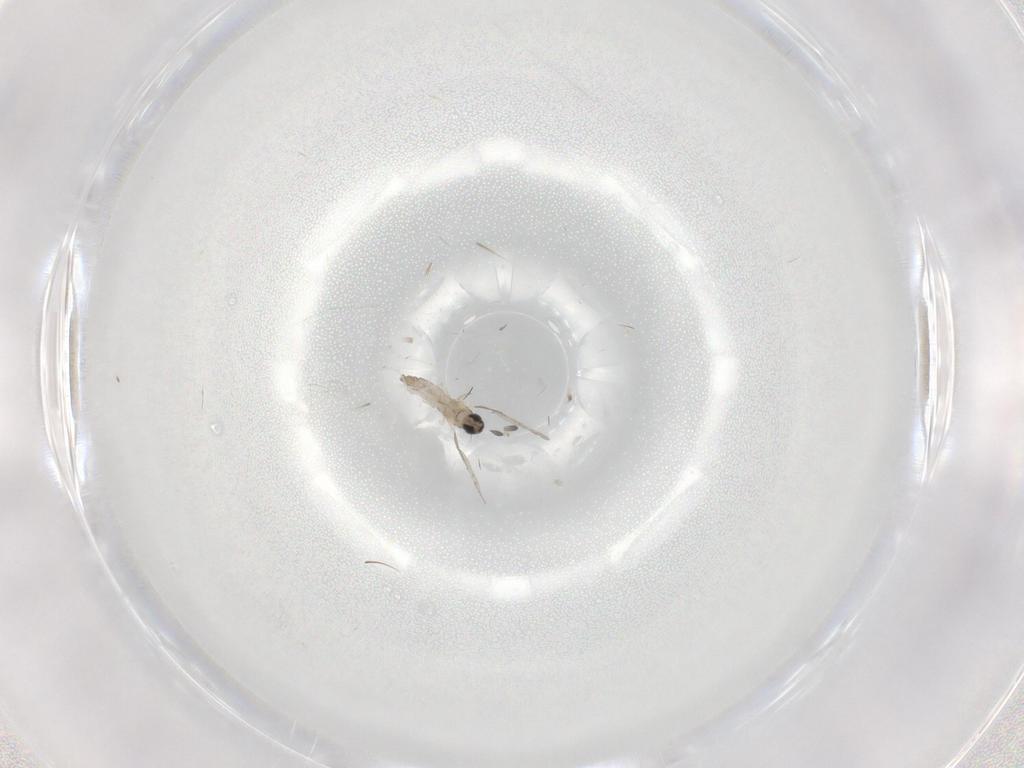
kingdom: Animalia
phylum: Arthropoda
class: Insecta
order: Diptera
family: Cecidomyiidae
